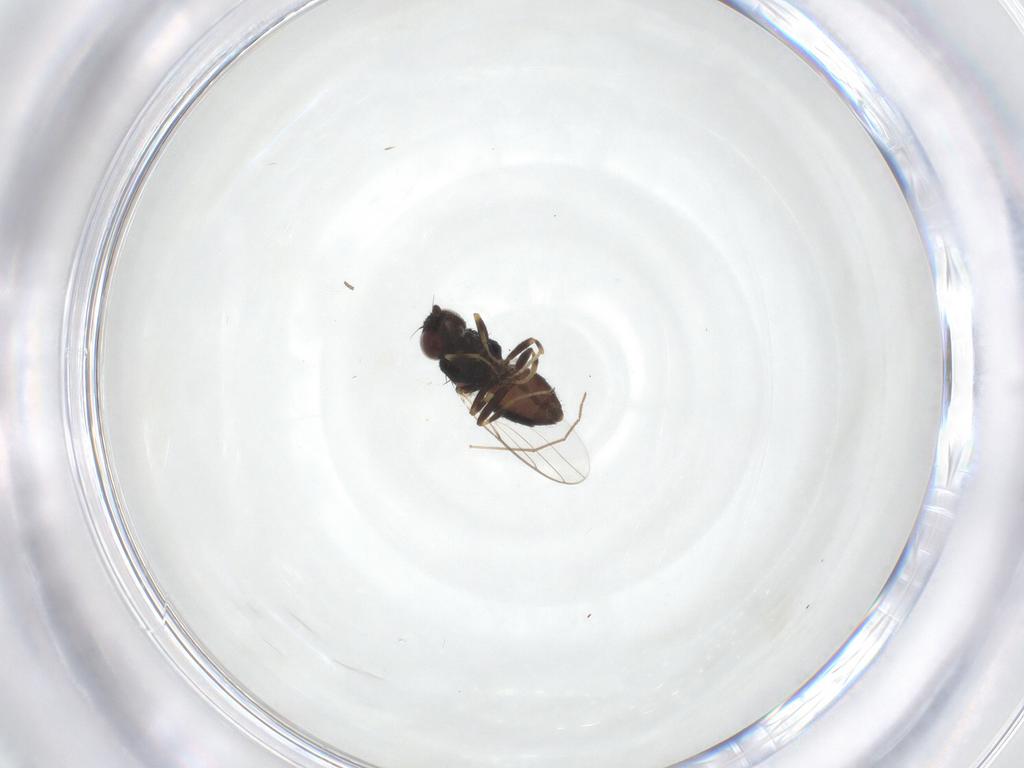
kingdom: Animalia
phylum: Arthropoda
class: Insecta
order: Diptera
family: Chloropidae
